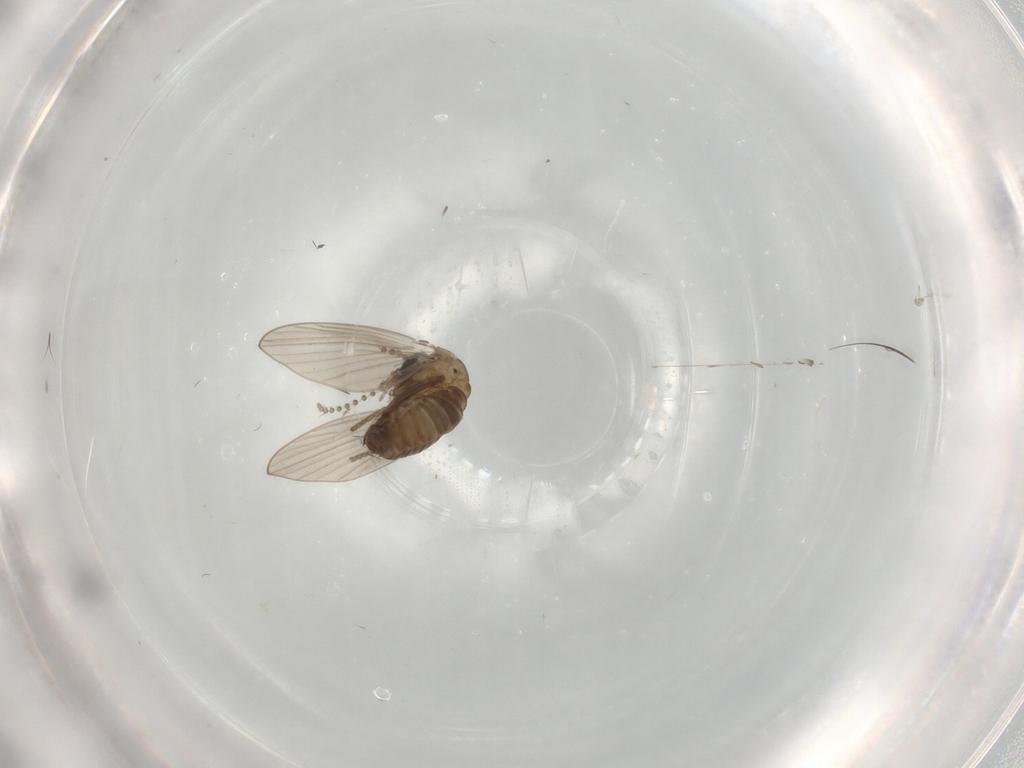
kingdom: Animalia
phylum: Arthropoda
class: Insecta
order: Diptera
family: Psychodidae
